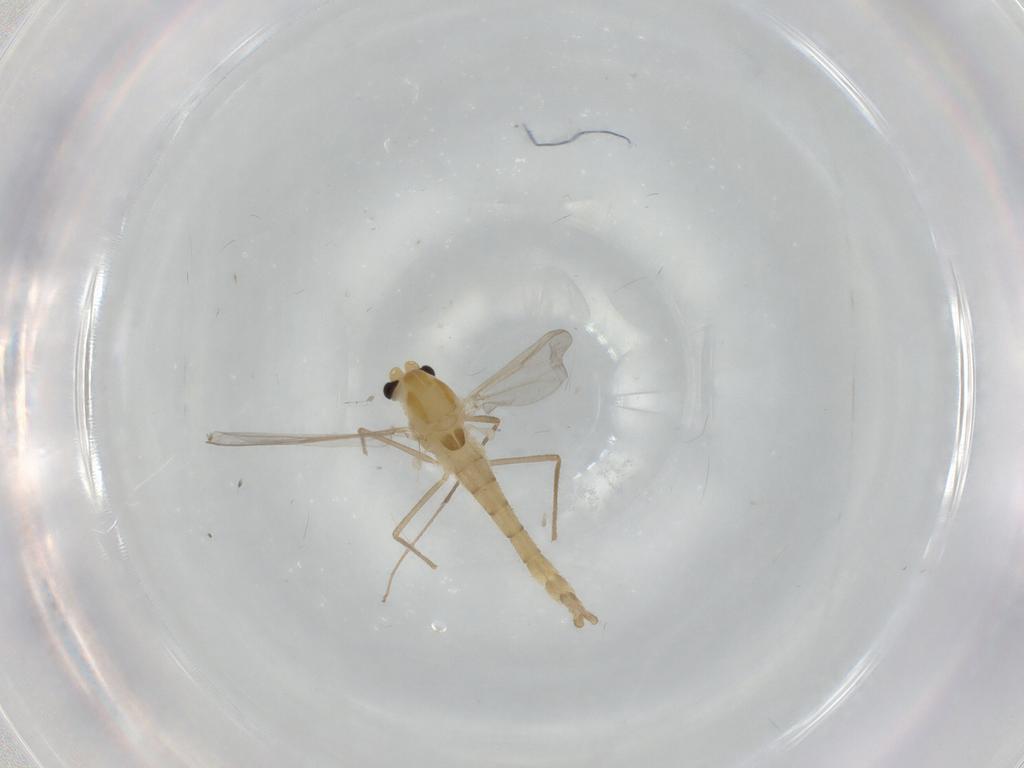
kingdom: Animalia
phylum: Arthropoda
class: Insecta
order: Diptera
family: Chironomidae
